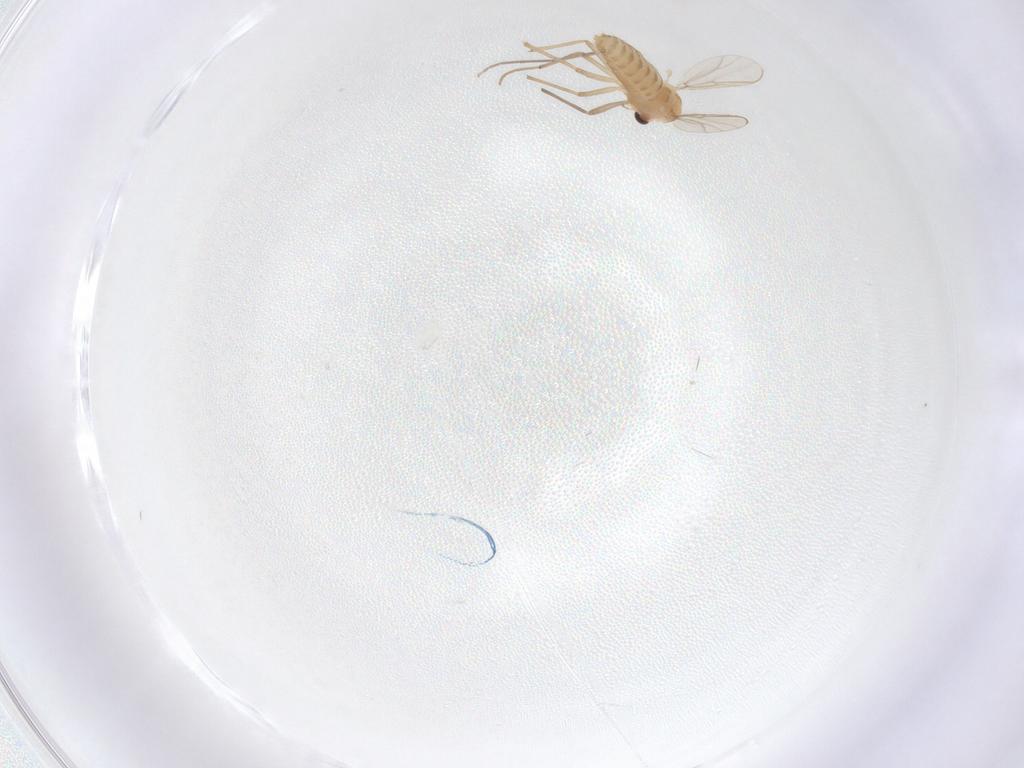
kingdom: Animalia
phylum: Arthropoda
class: Insecta
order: Diptera
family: Chironomidae
